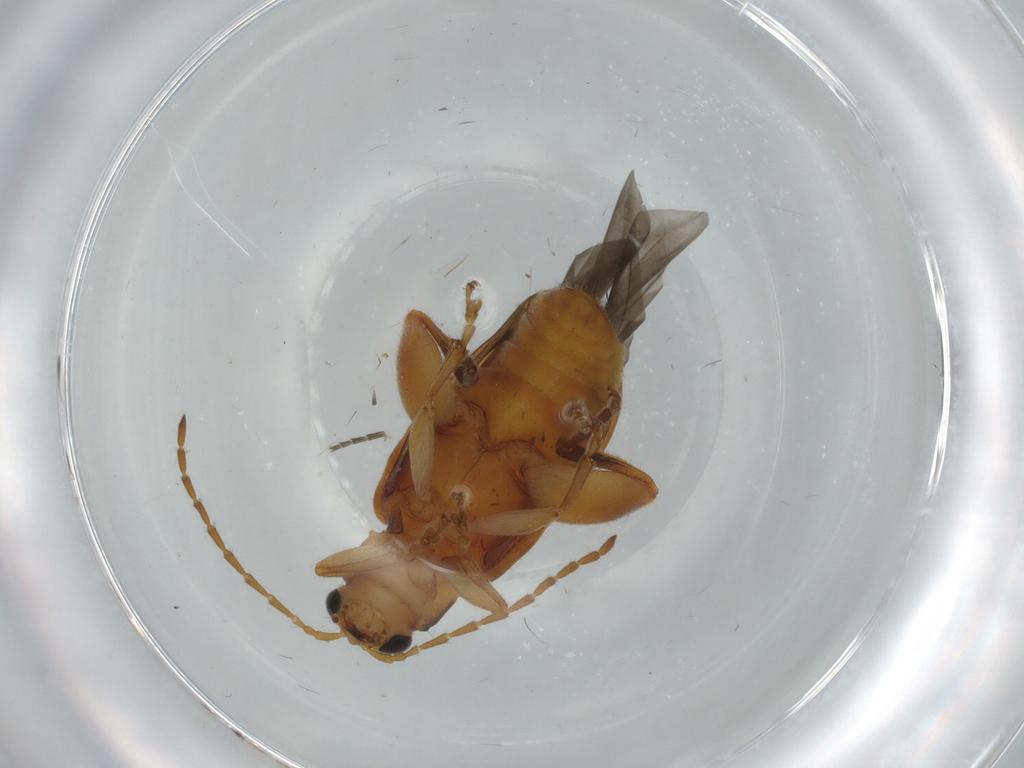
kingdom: Animalia
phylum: Arthropoda
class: Insecta
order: Coleoptera
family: Chrysomelidae
